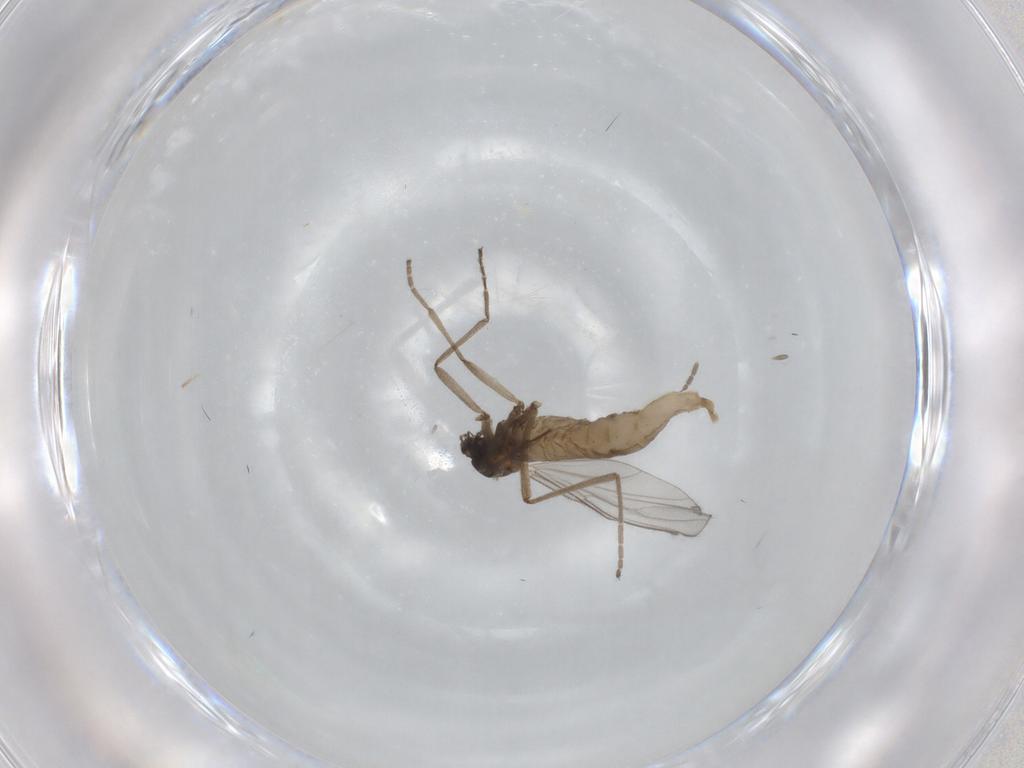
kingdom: Animalia
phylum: Arthropoda
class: Insecta
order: Diptera
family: Cecidomyiidae
